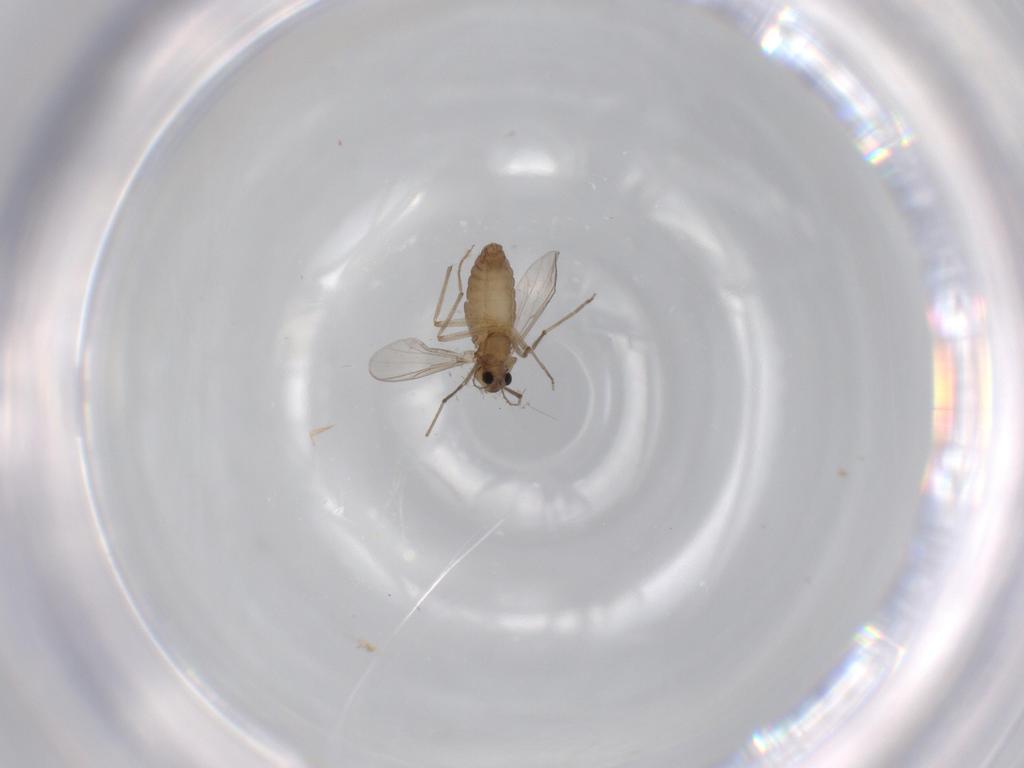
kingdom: Animalia
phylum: Arthropoda
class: Insecta
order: Diptera
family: Chironomidae
